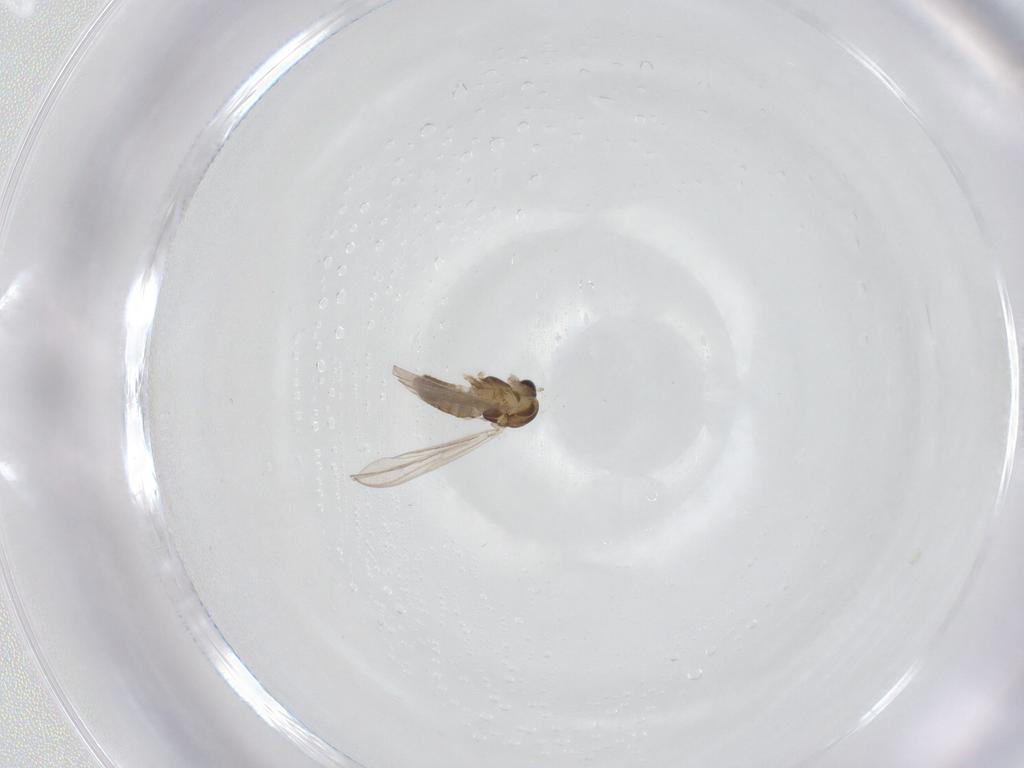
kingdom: Animalia
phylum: Arthropoda
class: Insecta
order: Diptera
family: Chironomidae
